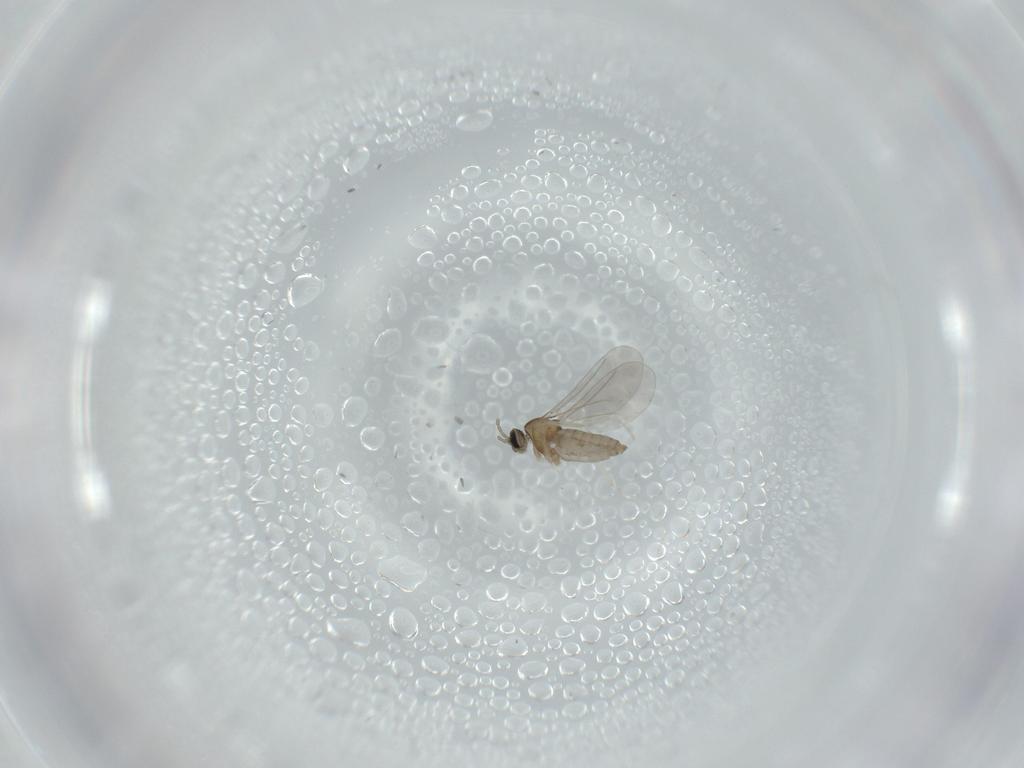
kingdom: Animalia
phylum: Arthropoda
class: Insecta
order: Diptera
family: Cecidomyiidae
